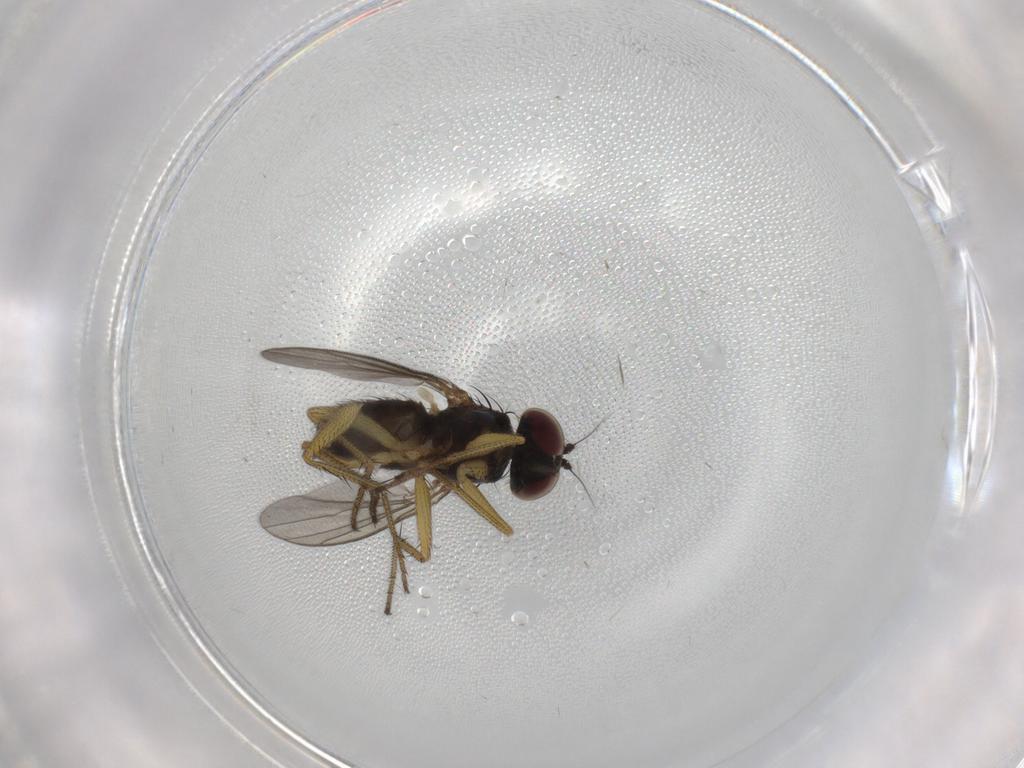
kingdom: Animalia
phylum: Arthropoda
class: Insecta
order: Diptera
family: Dolichopodidae
